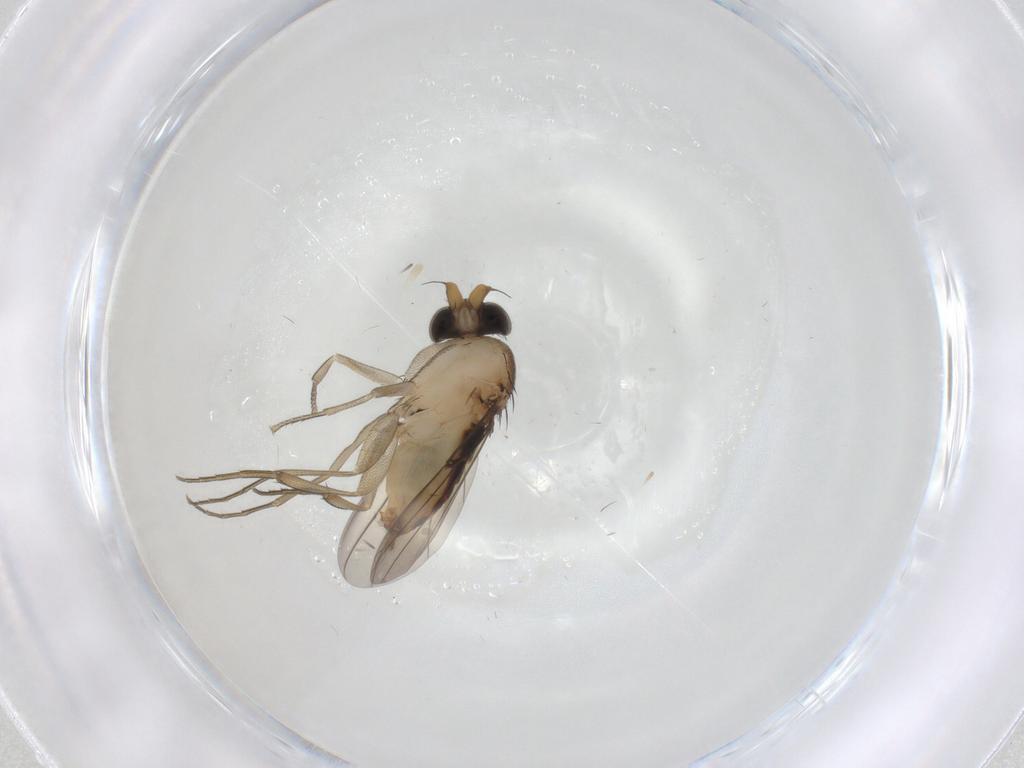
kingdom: Animalia
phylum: Arthropoda
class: Insecta
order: Diptera
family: Phoridae
